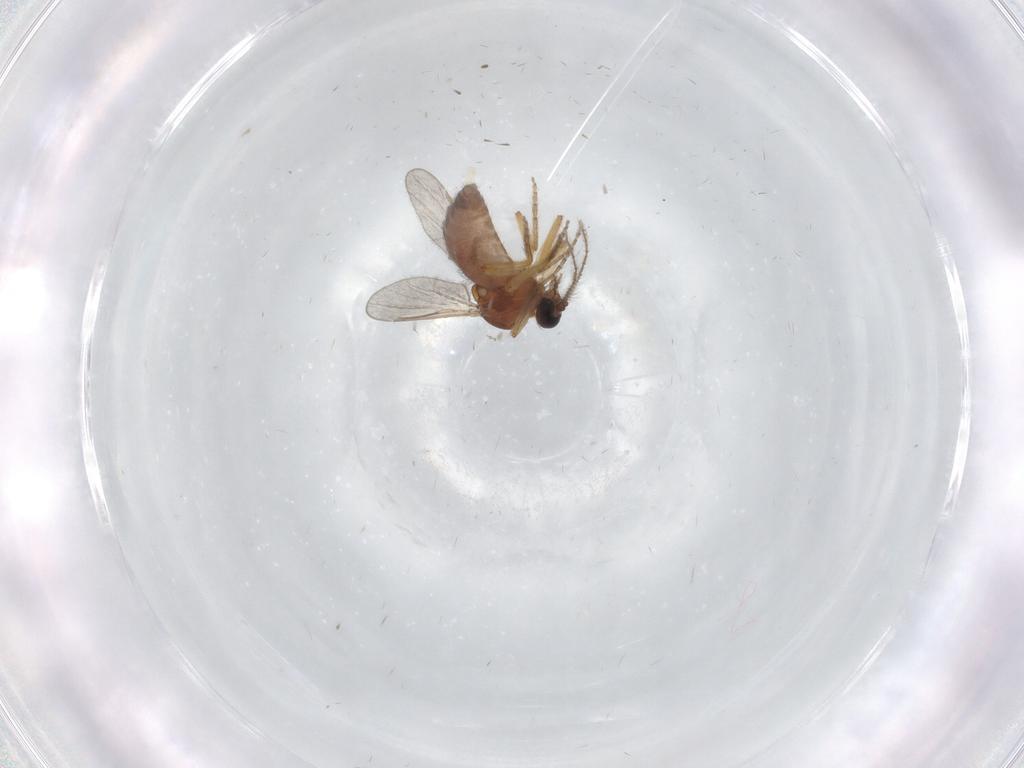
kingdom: Animalia
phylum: Arthropoda
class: Insecta
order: Diptera
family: Ceratopogonidae
